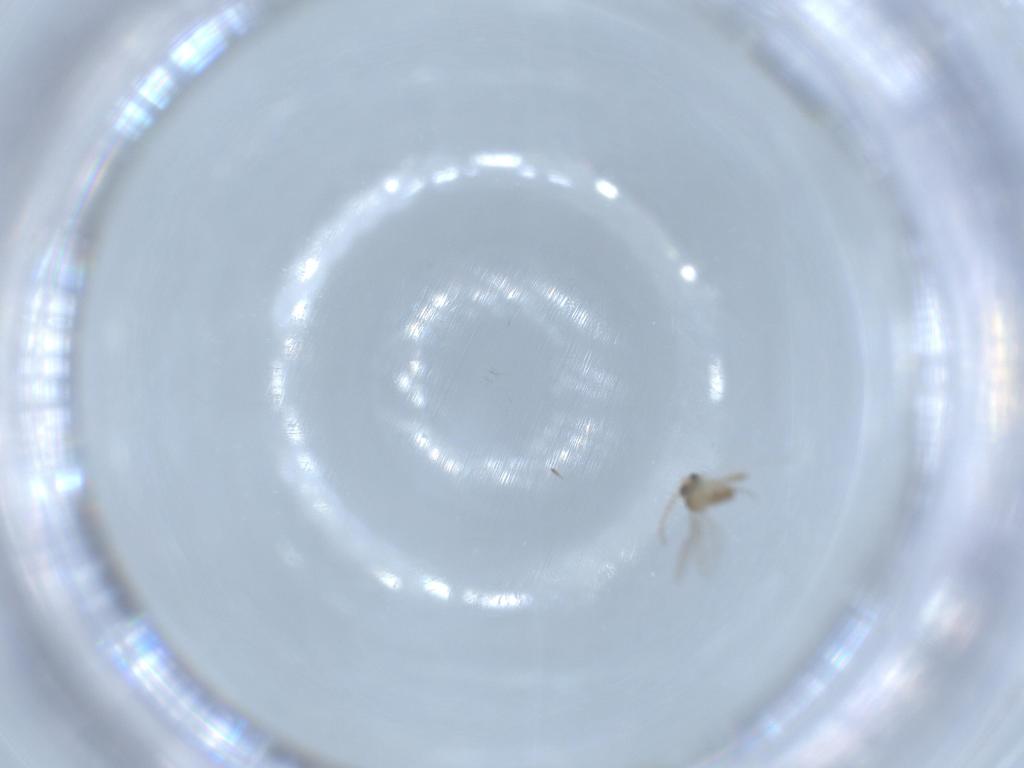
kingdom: Animalia
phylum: Arthropoda
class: Insecta
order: Diptera
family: Cecidomyiidae
